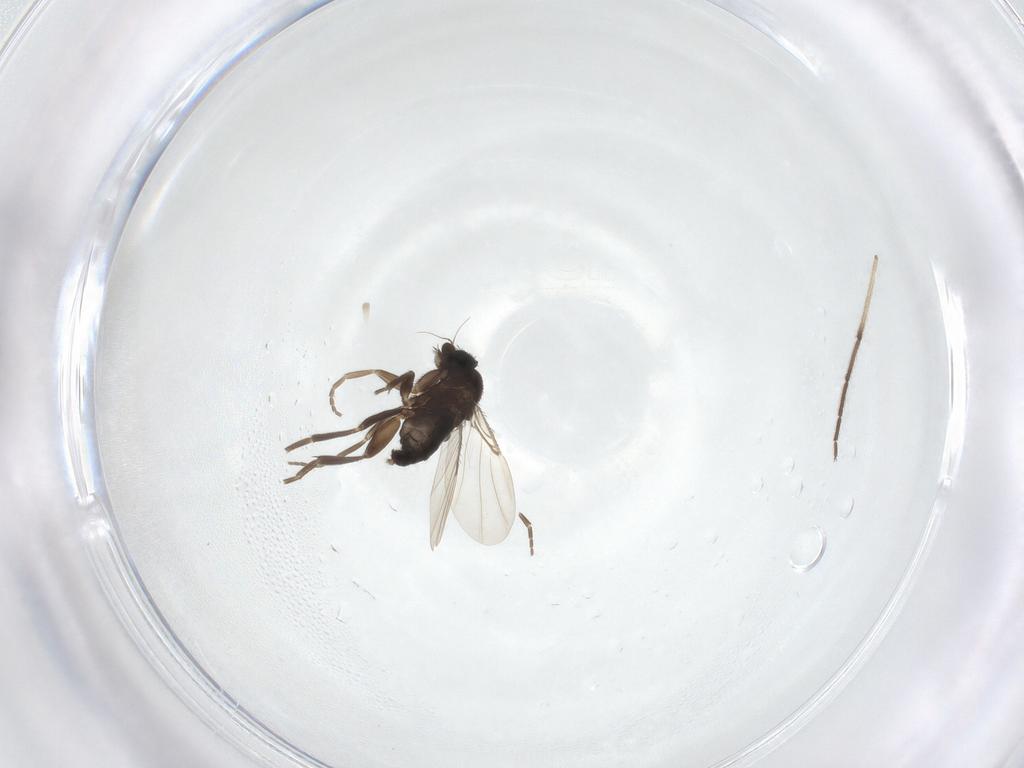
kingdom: Animalia
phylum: Arthropoda
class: Insecta
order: Diptera
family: Phoridae
